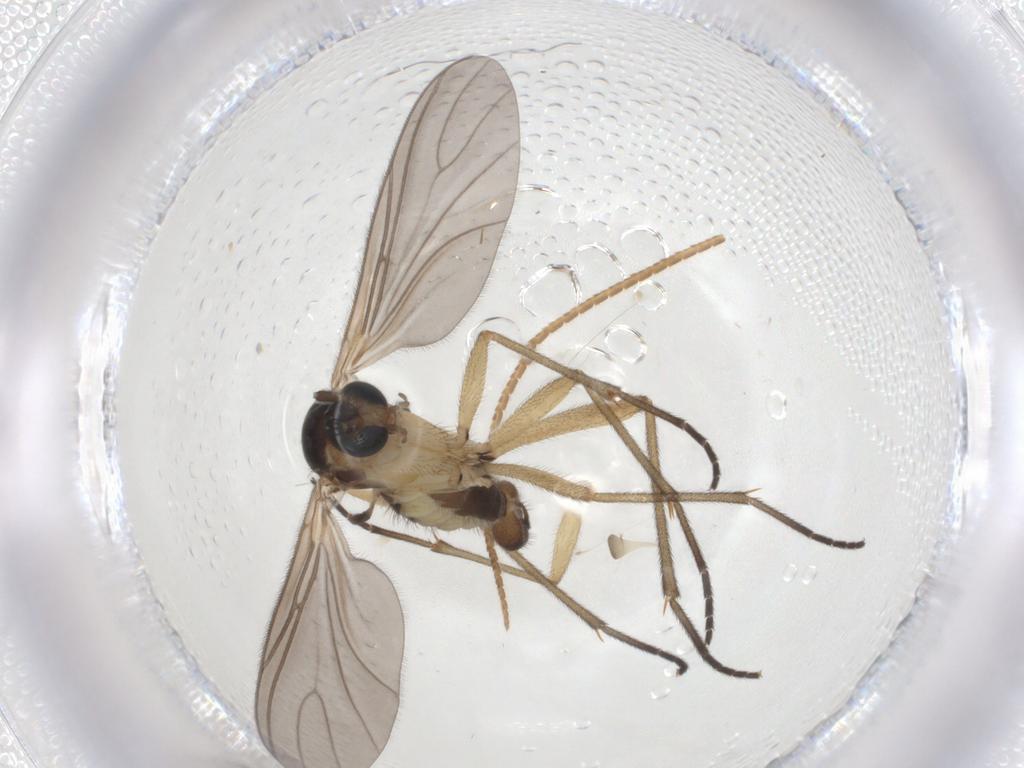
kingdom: Animalia
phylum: Arthropoda
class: Insecta
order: Diptera
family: Sciaridae
